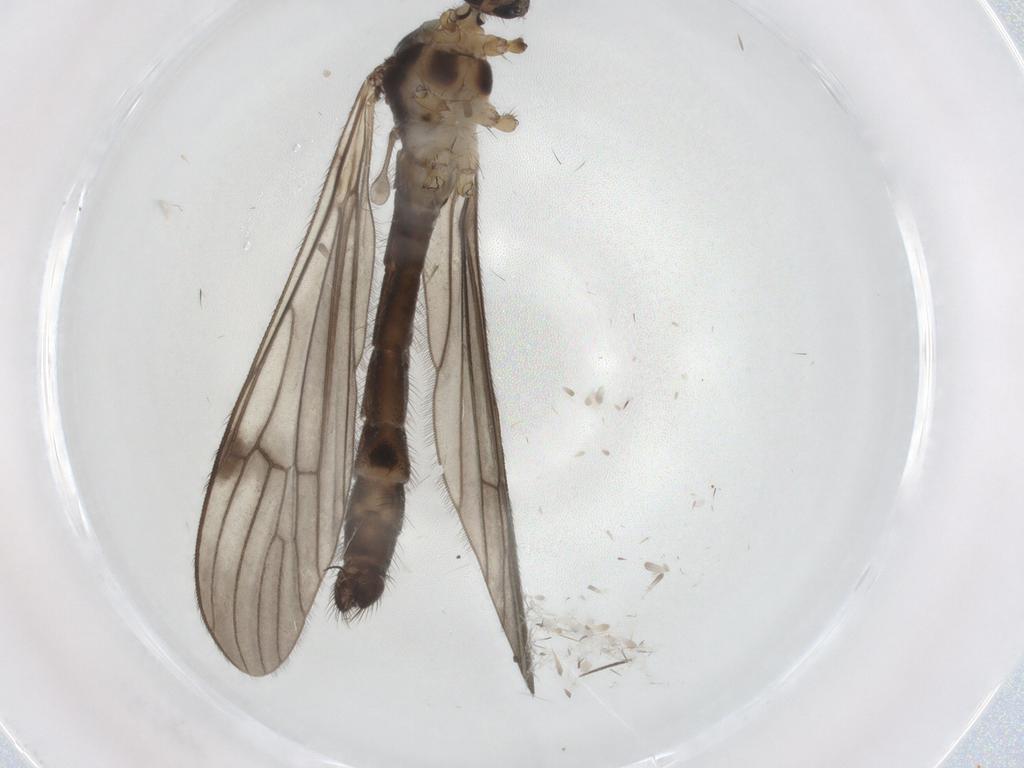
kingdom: Animalia
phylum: Arthropoda
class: Insecta
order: Diptera
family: Limoniidae
